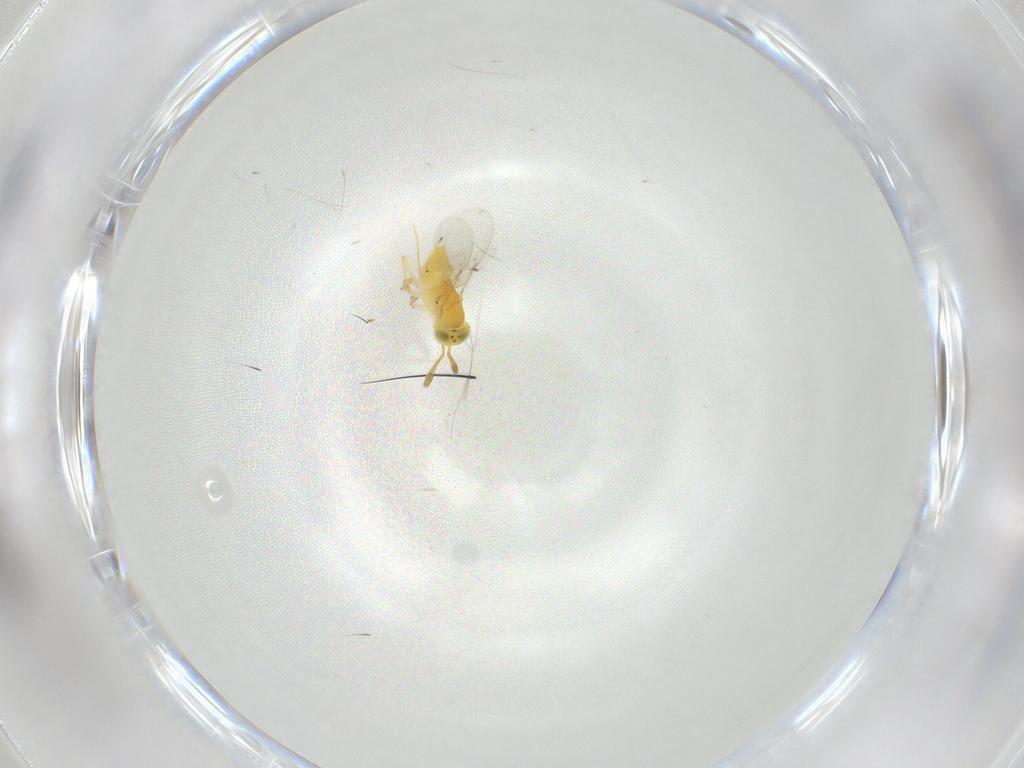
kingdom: Animalia
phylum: Arthropoda
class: Insecta
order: Hymenoptera
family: Encyrtidae
